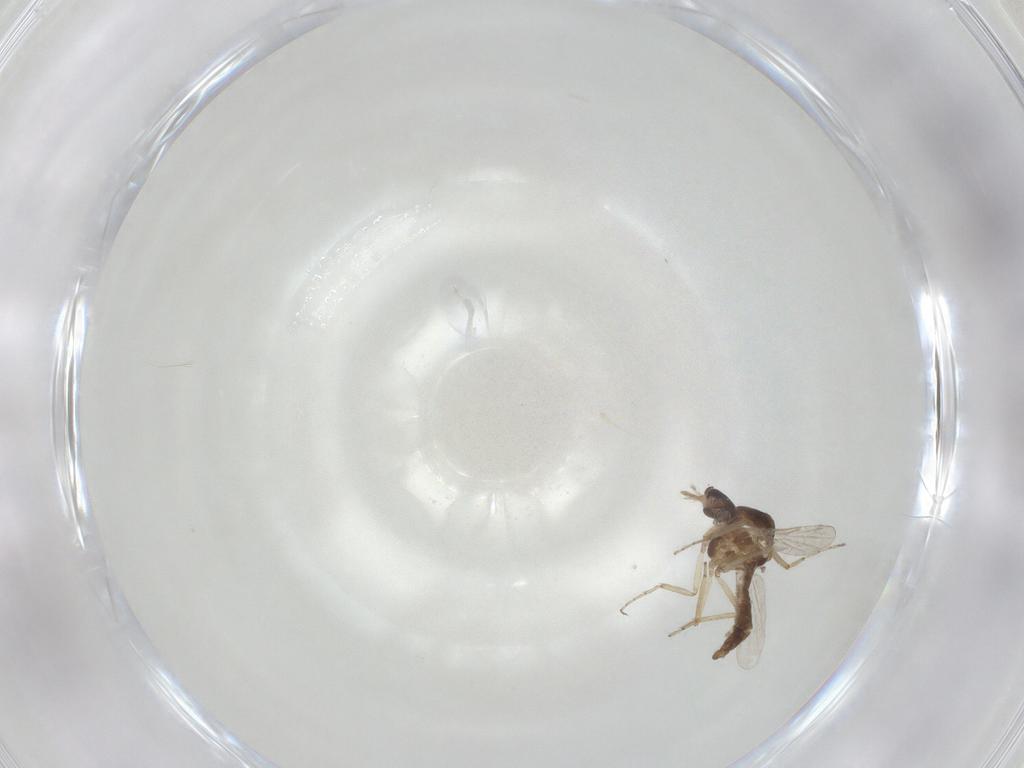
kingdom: Animalia
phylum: Arthropoda
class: Insecta
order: Diptera
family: Ceratopogonidae
